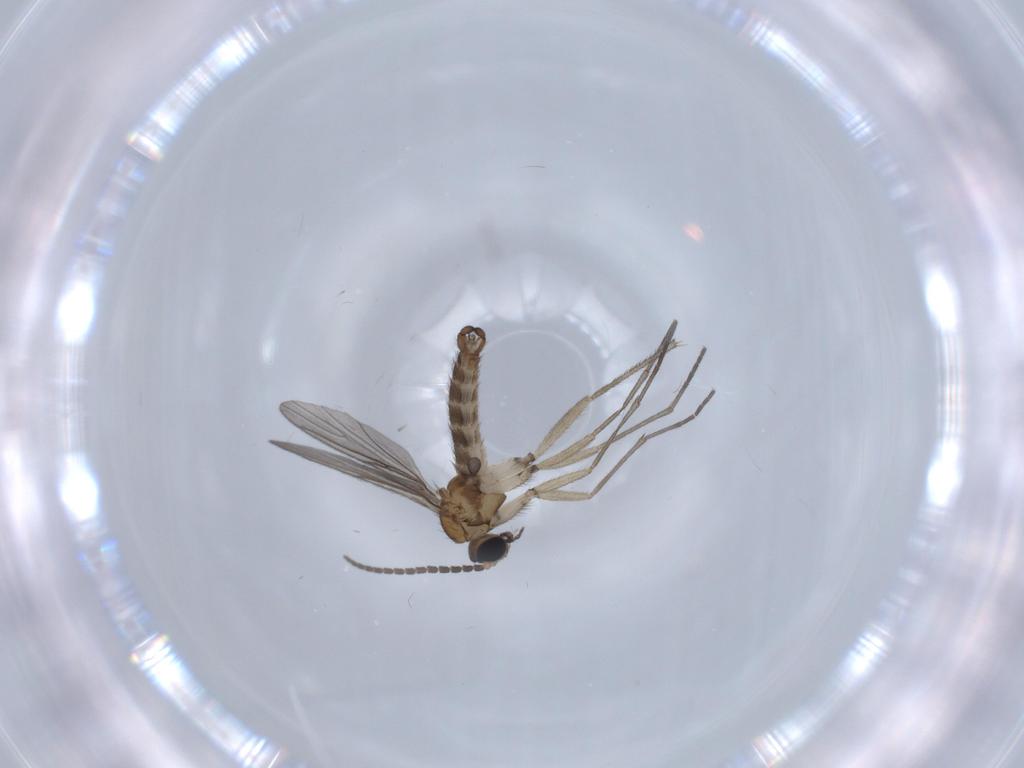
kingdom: Animalia
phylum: Arthropoda
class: Insecta
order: Diptera
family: Sciaridae
